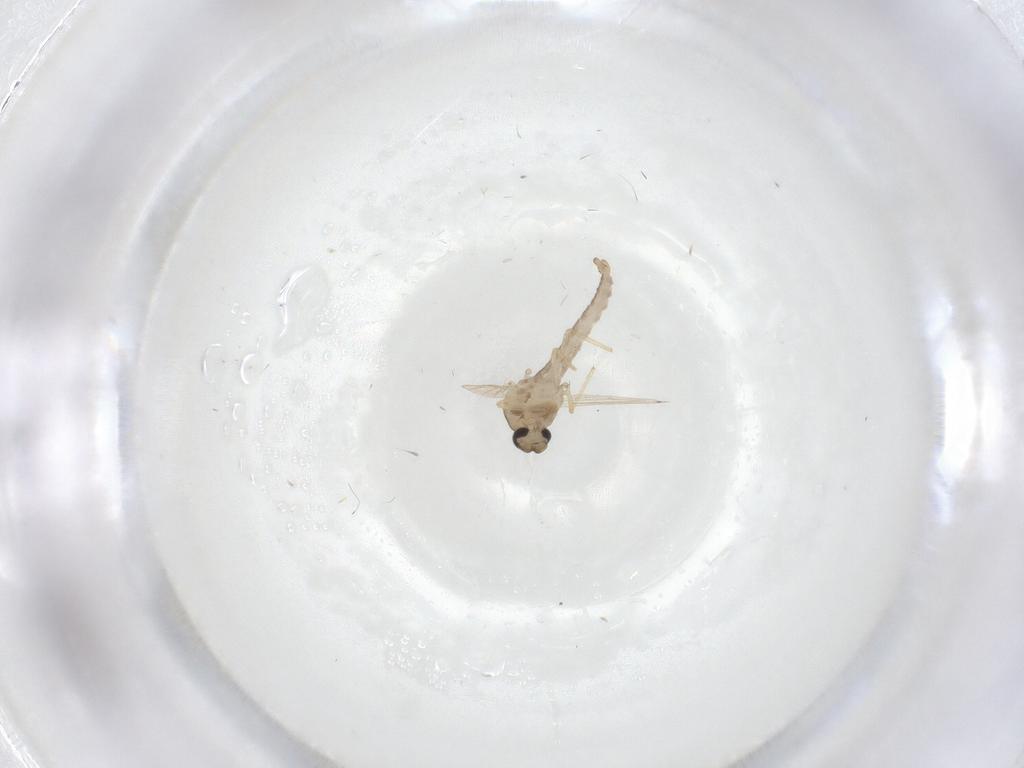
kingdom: Animalia
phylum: Arthropoda
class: Insecta
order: Diptera
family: Ceratopogonidae
